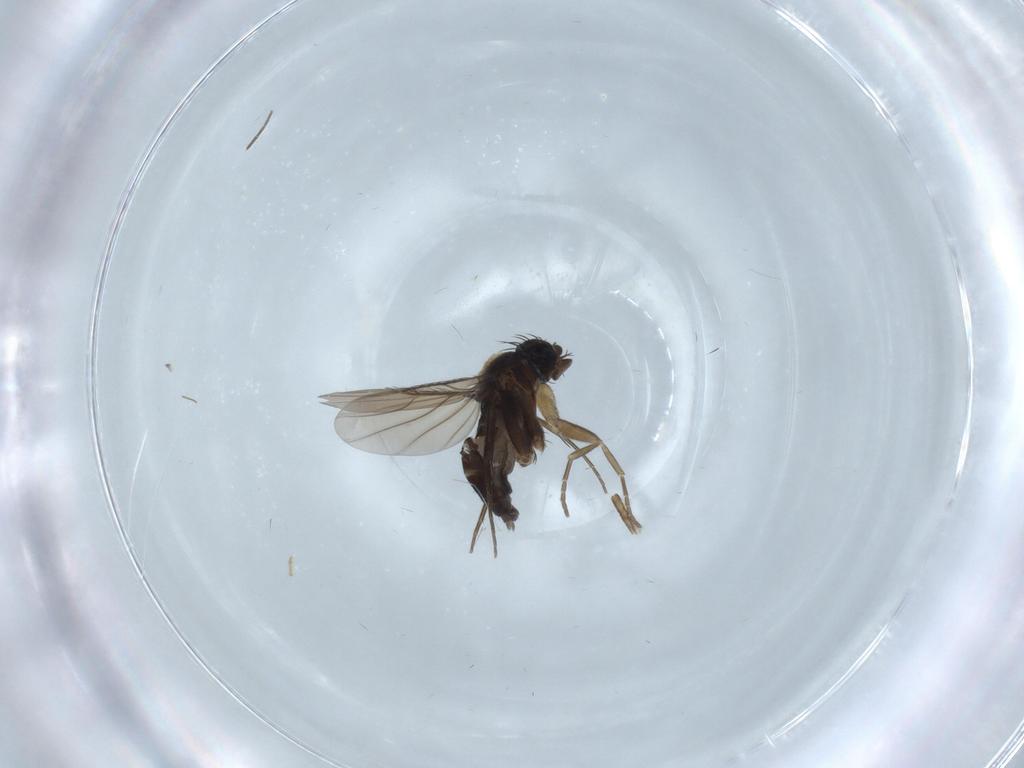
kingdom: Animalia
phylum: Arthropoda
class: Insecta
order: Diptera
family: Phoridae
